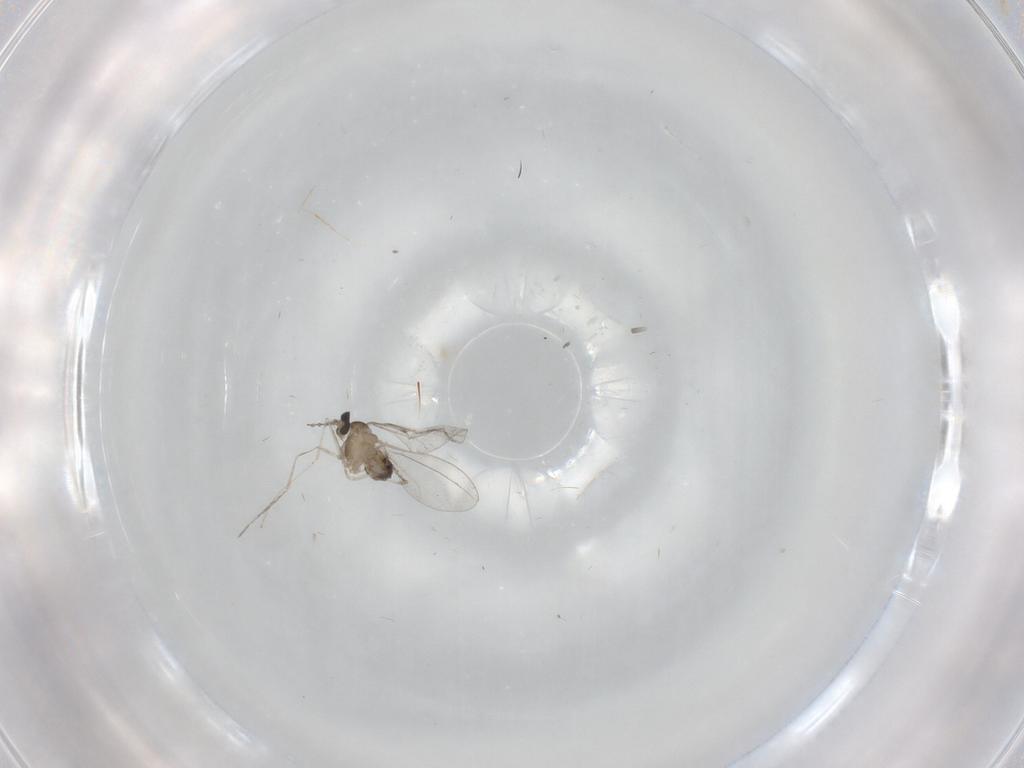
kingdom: Animalia
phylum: Arthropoda
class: Insecta
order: Diptera
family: Cecidomyiidae
